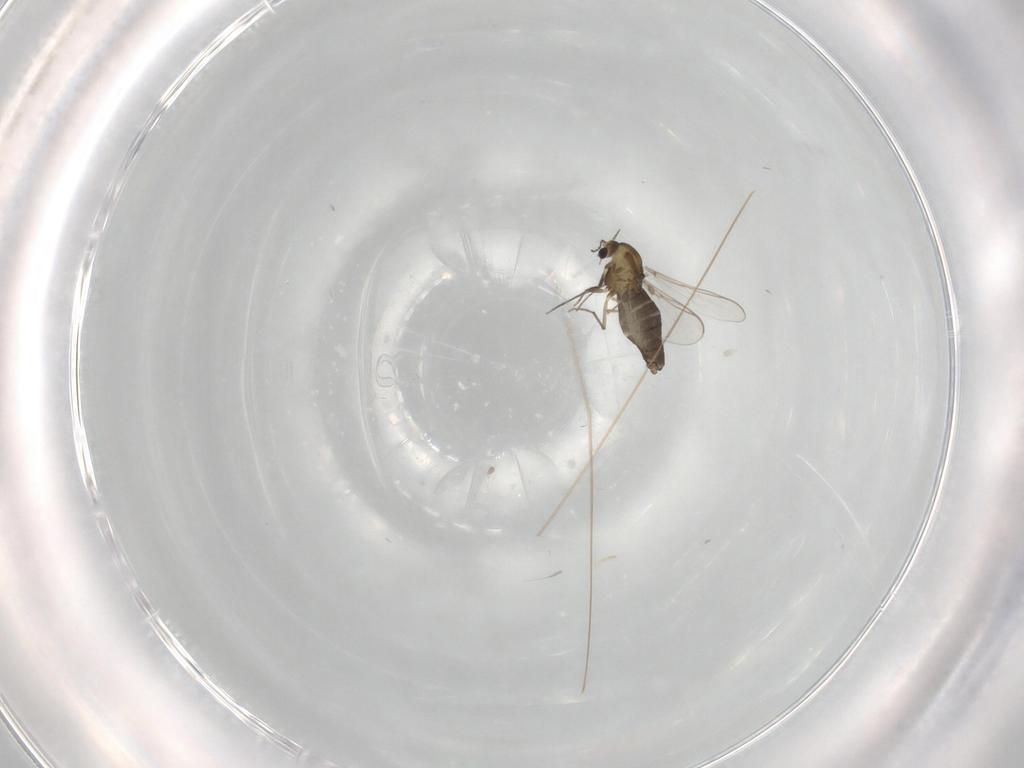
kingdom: Animalia
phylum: Arthropoda
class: Insecta
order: Diptera
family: Chironomidae
